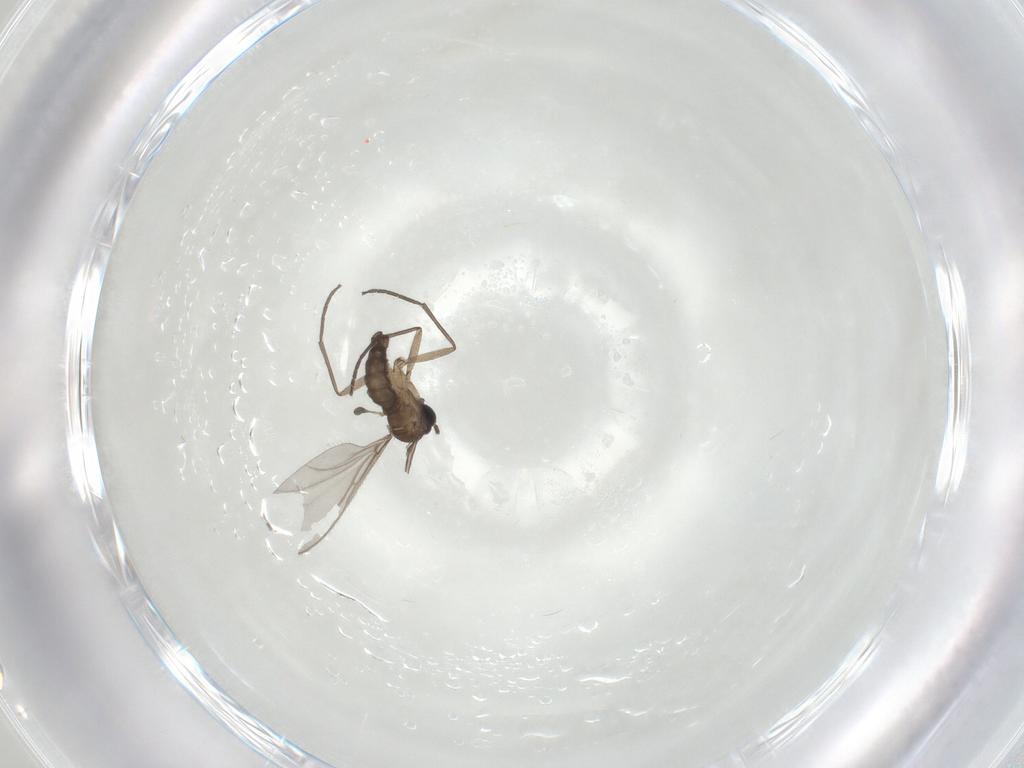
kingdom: Animalia
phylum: Arthropoda
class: Insecta
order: Diptera
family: Sciaridae
